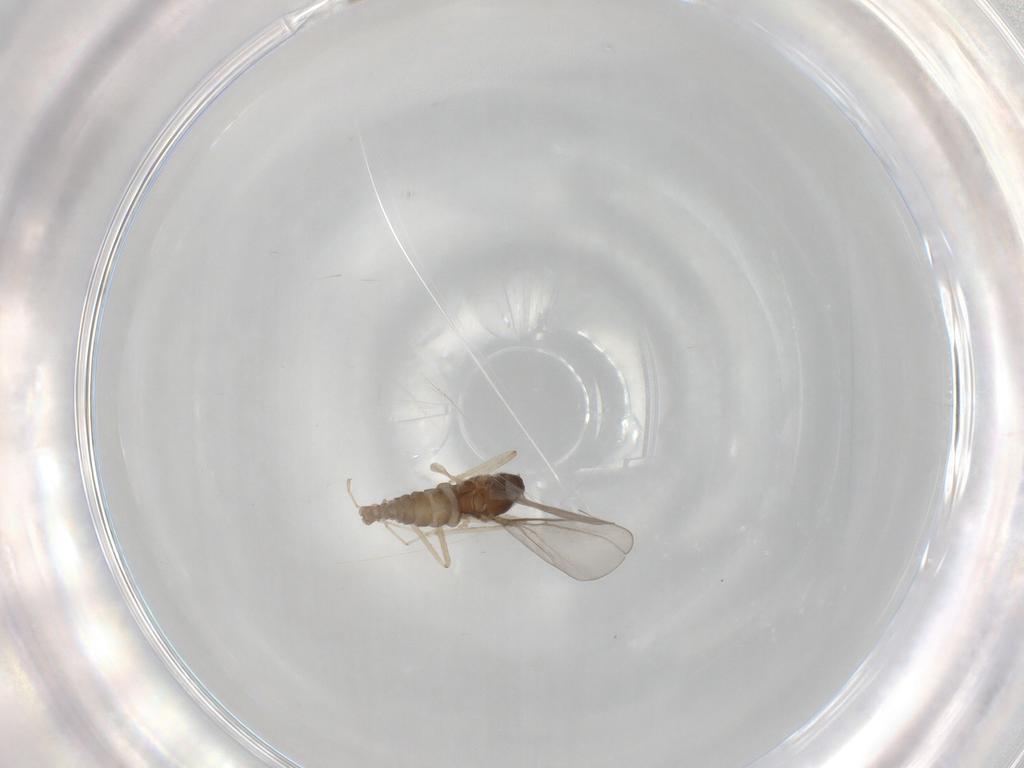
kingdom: Animalia
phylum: Arthropoda
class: Insecta
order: Diptera
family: Cecidomyiidae
